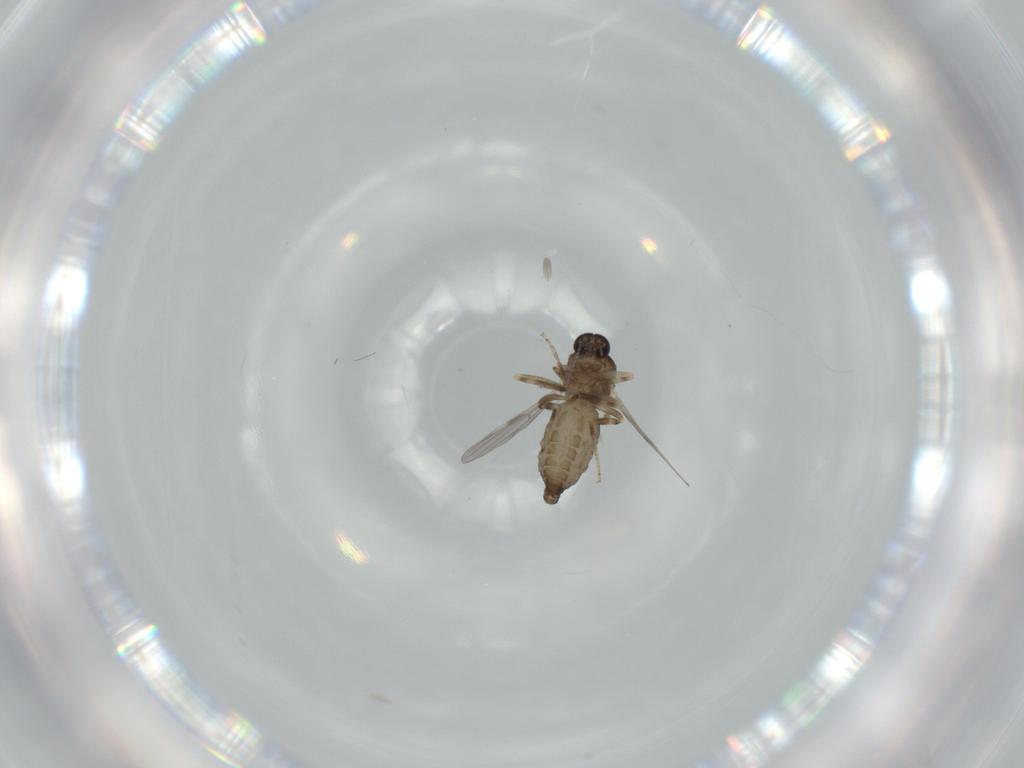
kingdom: Animalia
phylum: Arthropoda
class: Insecta
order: Diptera
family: Ceratopogonidae
